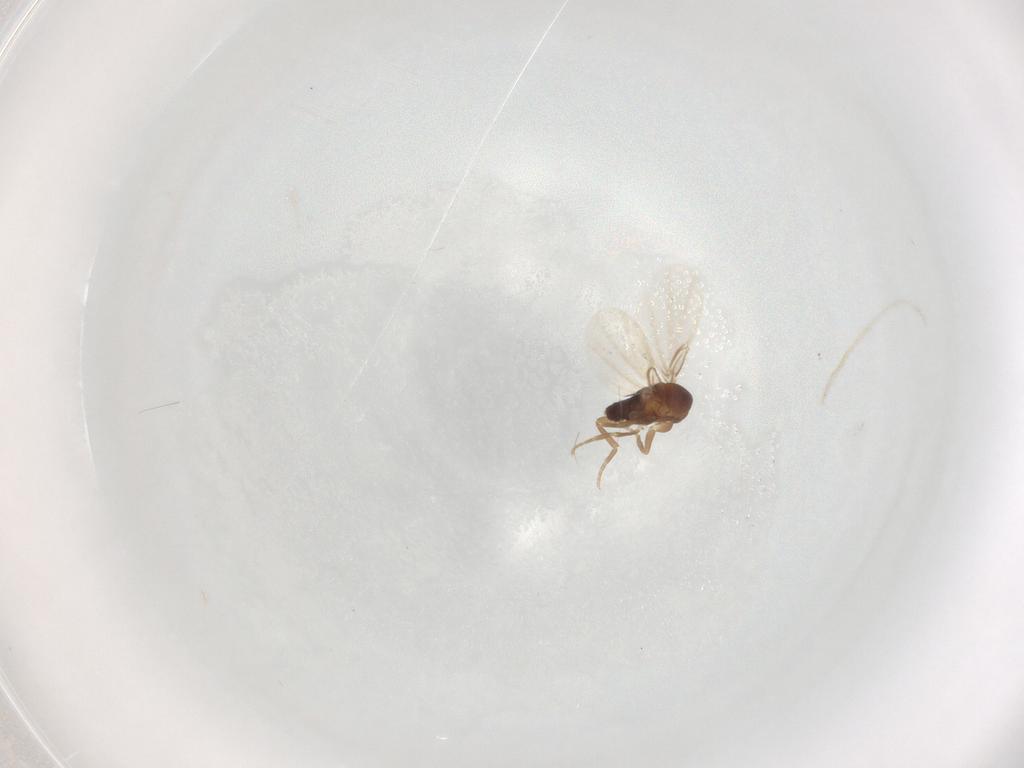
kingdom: Animalia
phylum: Arthropoda
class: Insecta
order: Diptera
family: Phoridae
